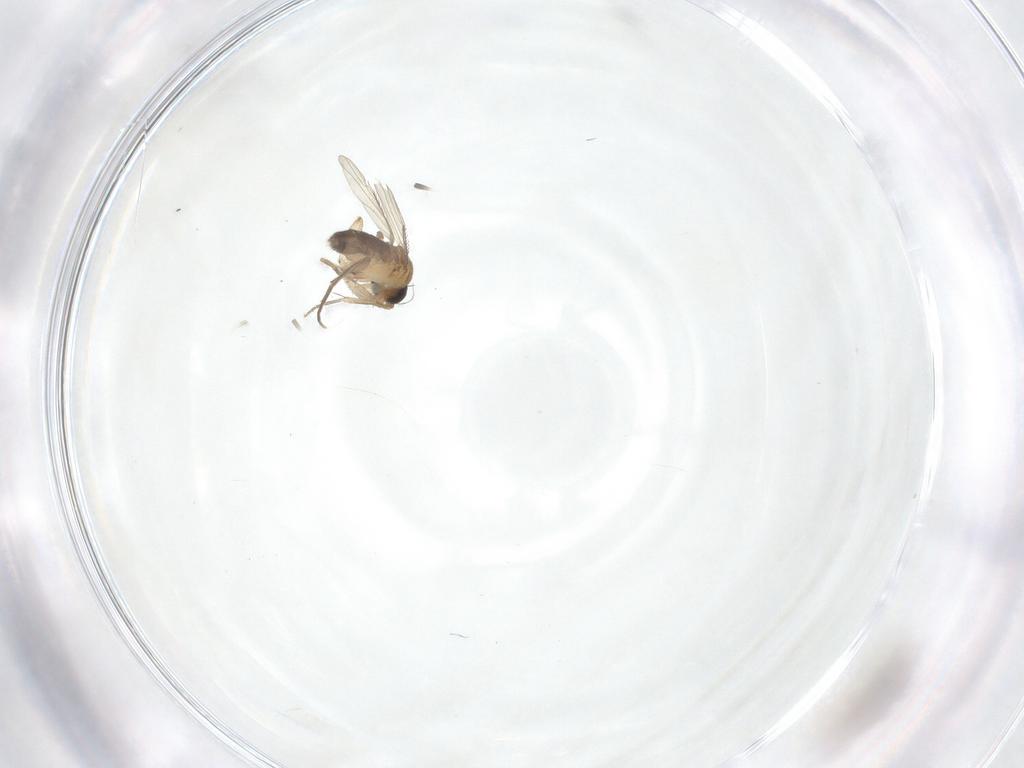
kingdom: Animalia
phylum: Arthropoda
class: Insecta
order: Diptera
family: Phoridae
